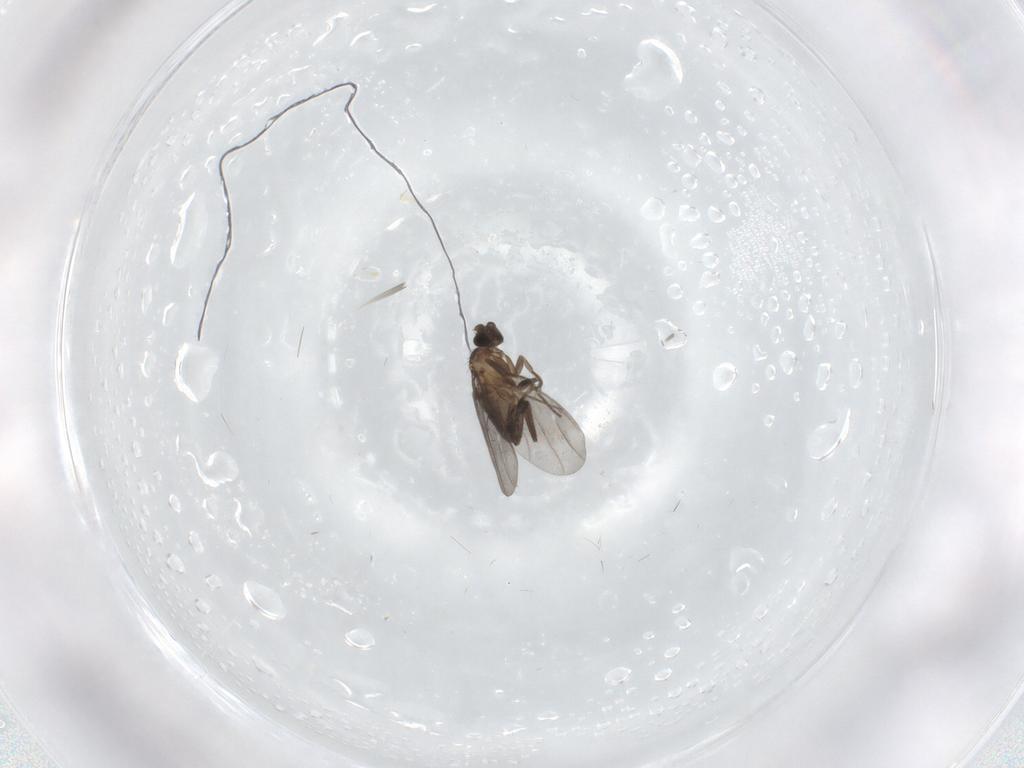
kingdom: Animalia
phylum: Arthropoda
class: Insecta
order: Diptera
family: Phoridae
